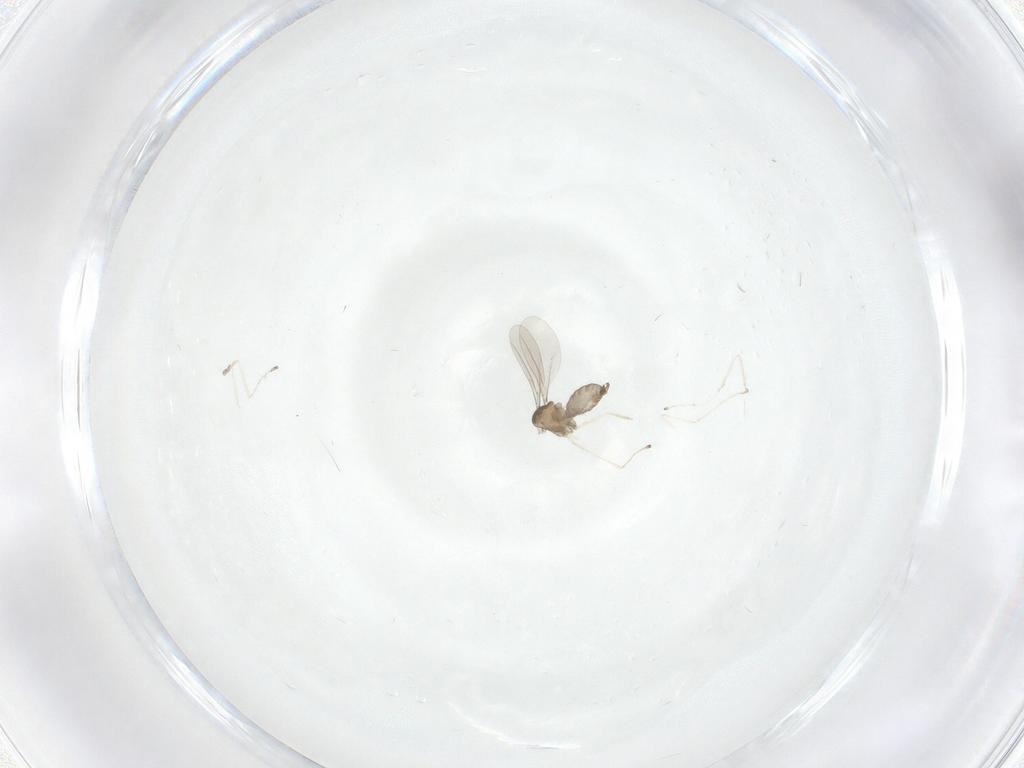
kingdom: Animalia
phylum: Arthropoda
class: Insecta
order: Diptera
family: Cecidomyiidae
